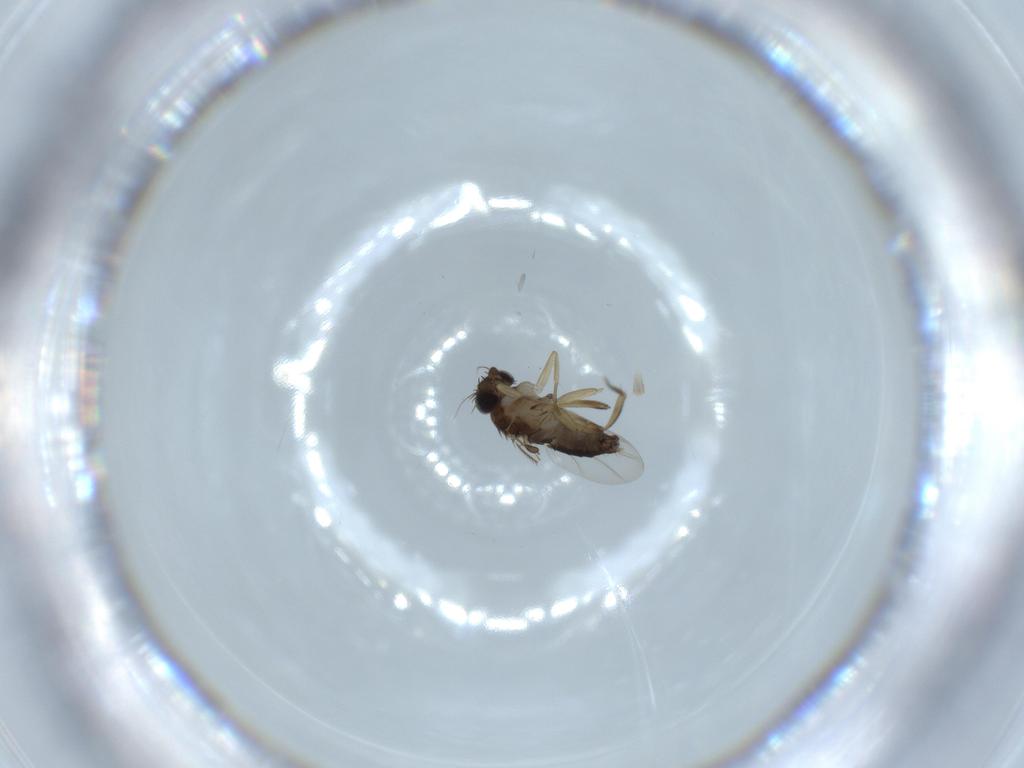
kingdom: Animalia
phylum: Arthropoda
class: Insecta
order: Diptera
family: Phoridae
